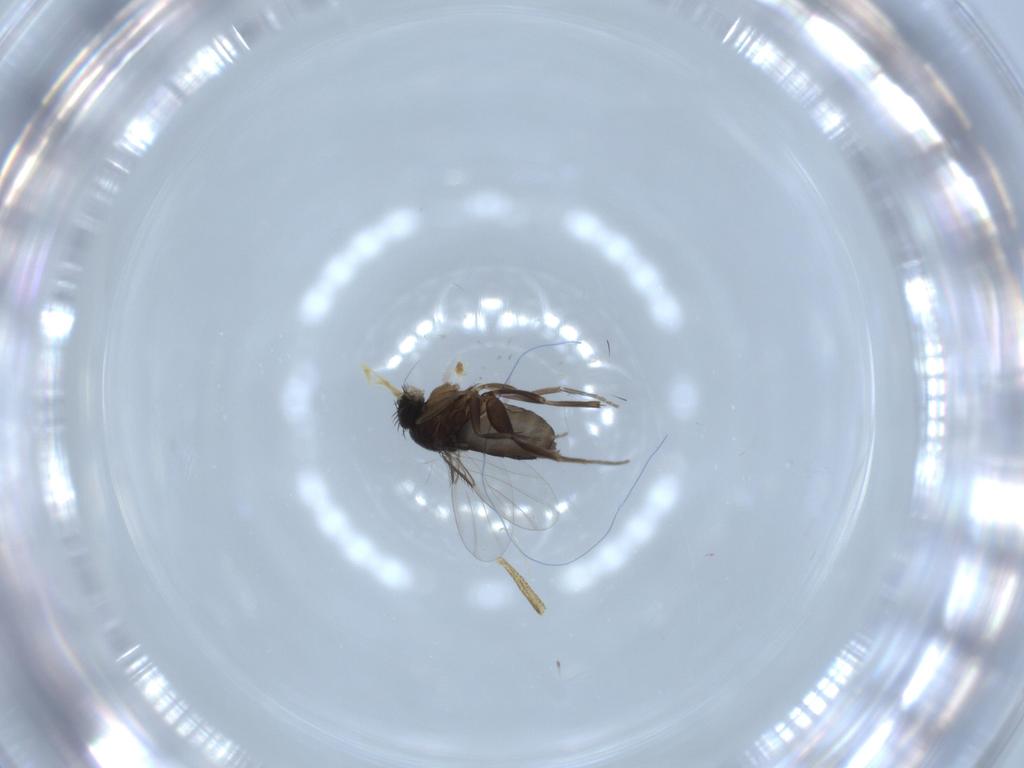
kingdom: Animalia
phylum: Arthropoda
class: Insecta
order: Diptera
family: Phoridae
